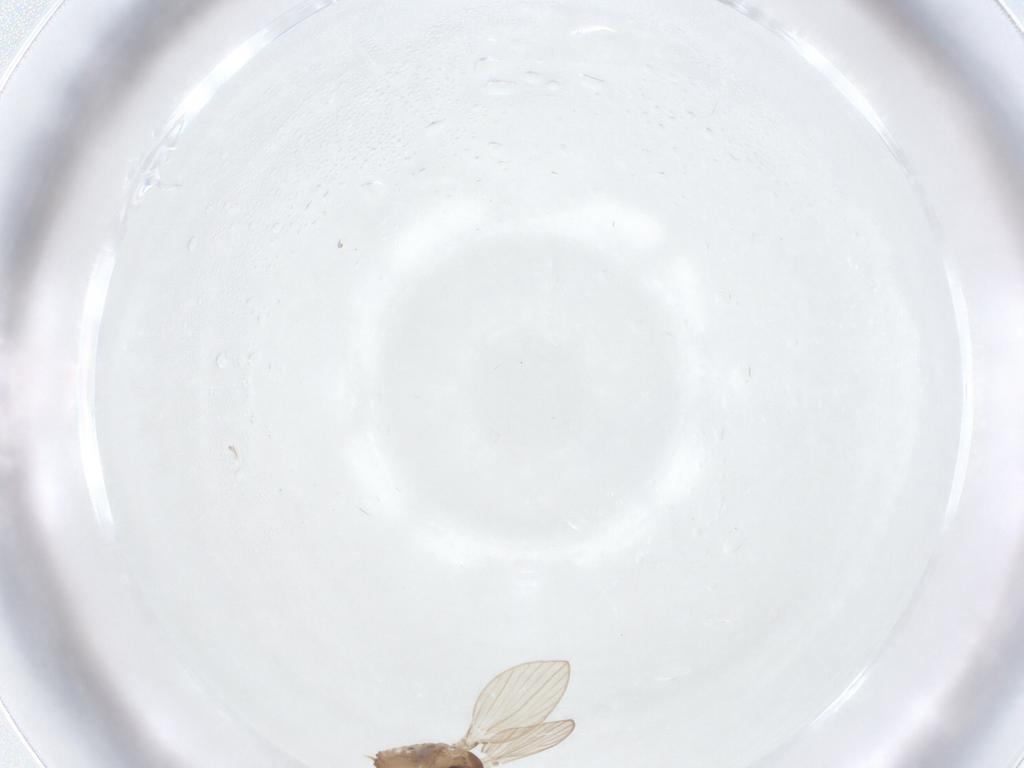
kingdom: Animalia
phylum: Arthropoda
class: Insecta
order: Diptera
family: Psychodidae
